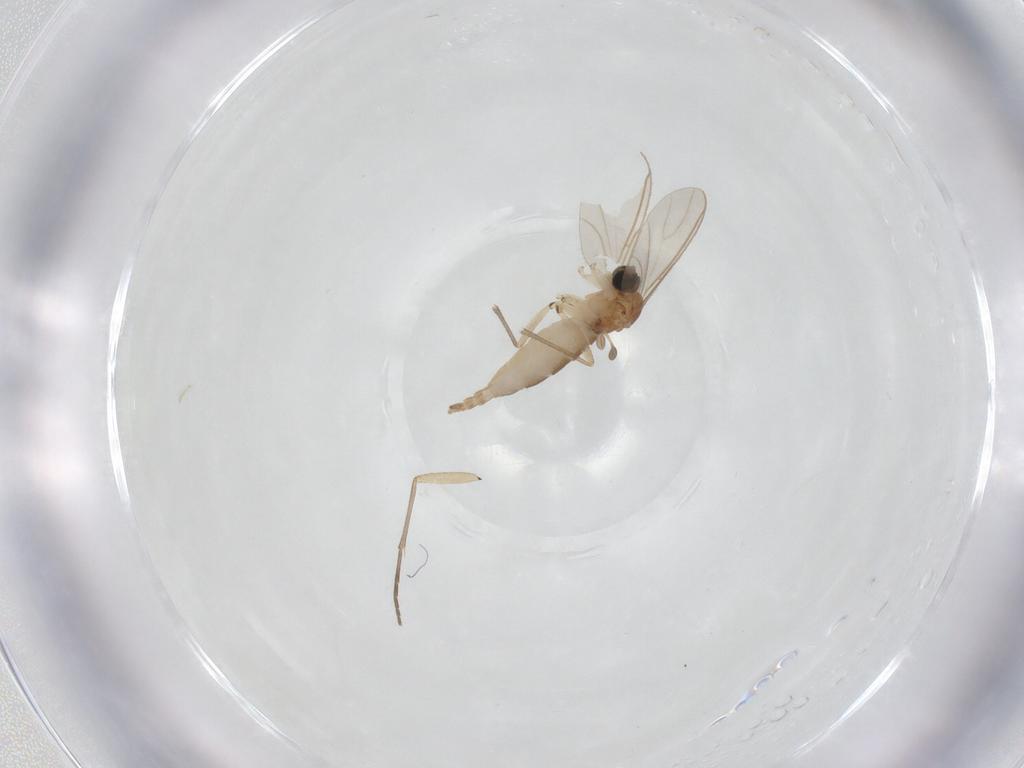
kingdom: Animalia
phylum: Arthropoda
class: Insecta
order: Diptera
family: Sciaridae
